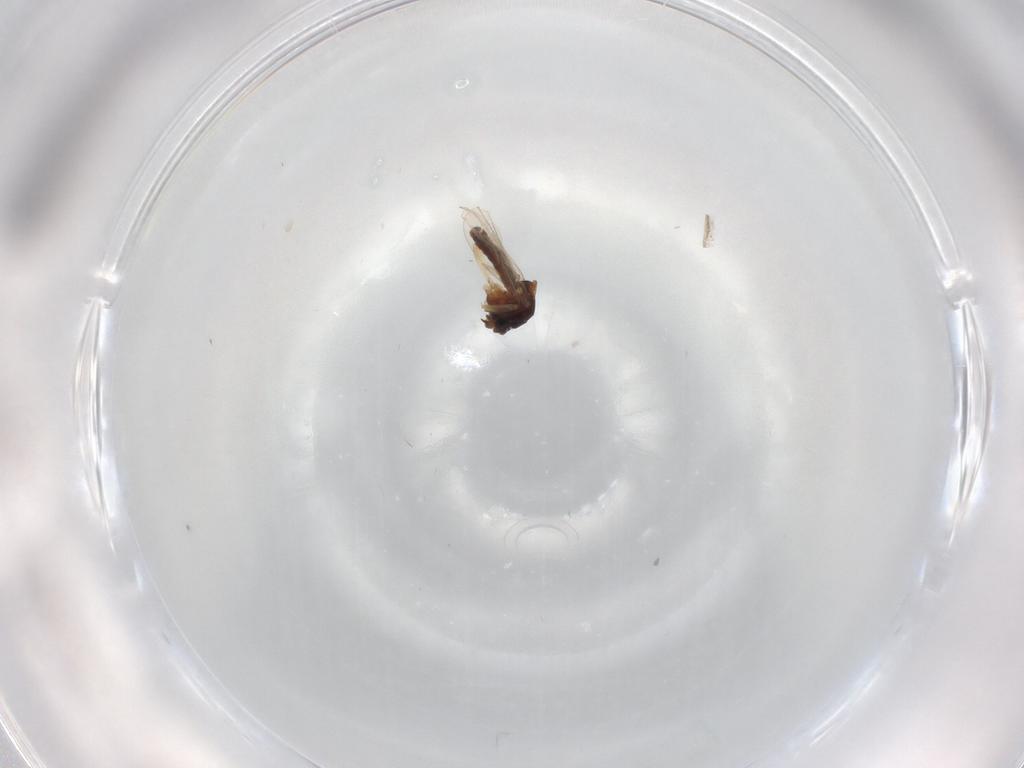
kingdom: Animalia
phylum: Arthropoda
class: Insecta
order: Diptera
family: Ceratopogonidae
